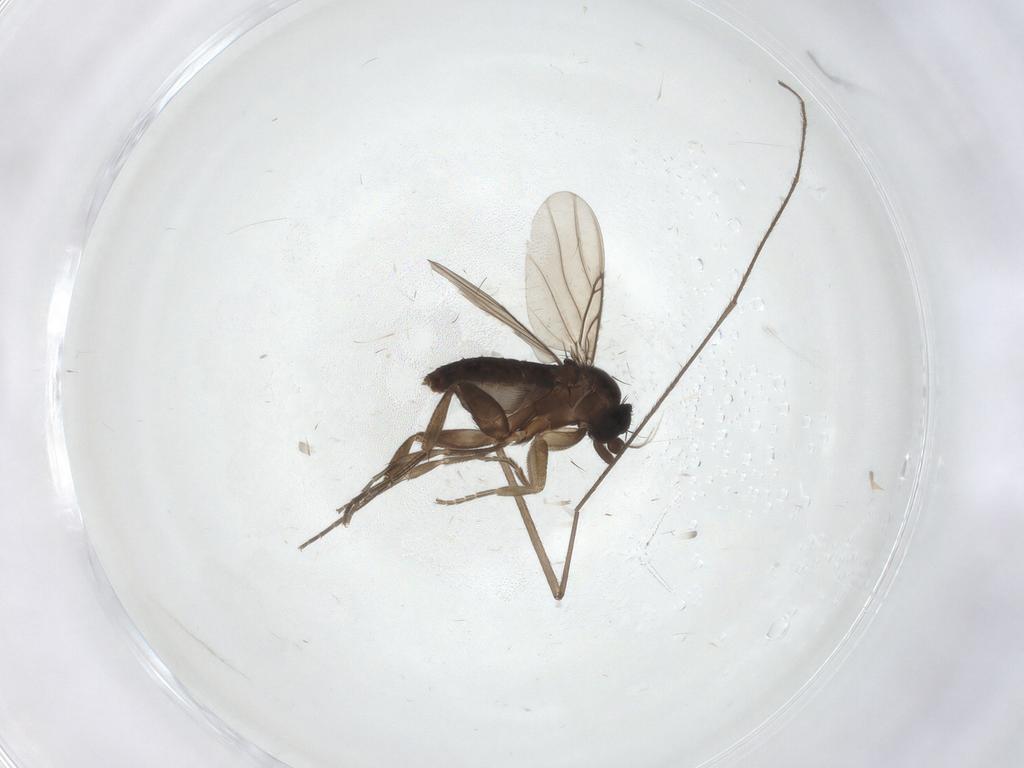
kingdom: Animalia
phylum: Arthropoda
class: Insecta
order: Diptera
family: Phoridae
